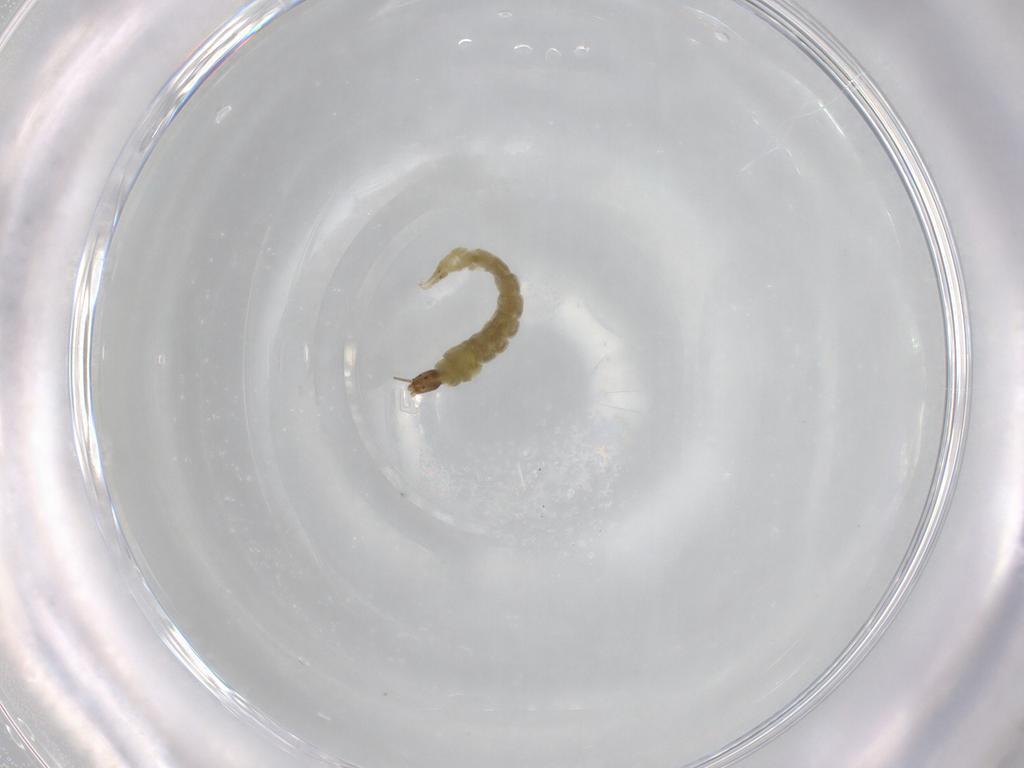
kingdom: Animalia
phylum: Arthropoda
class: Insecta
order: Diptera
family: Chironomidae
